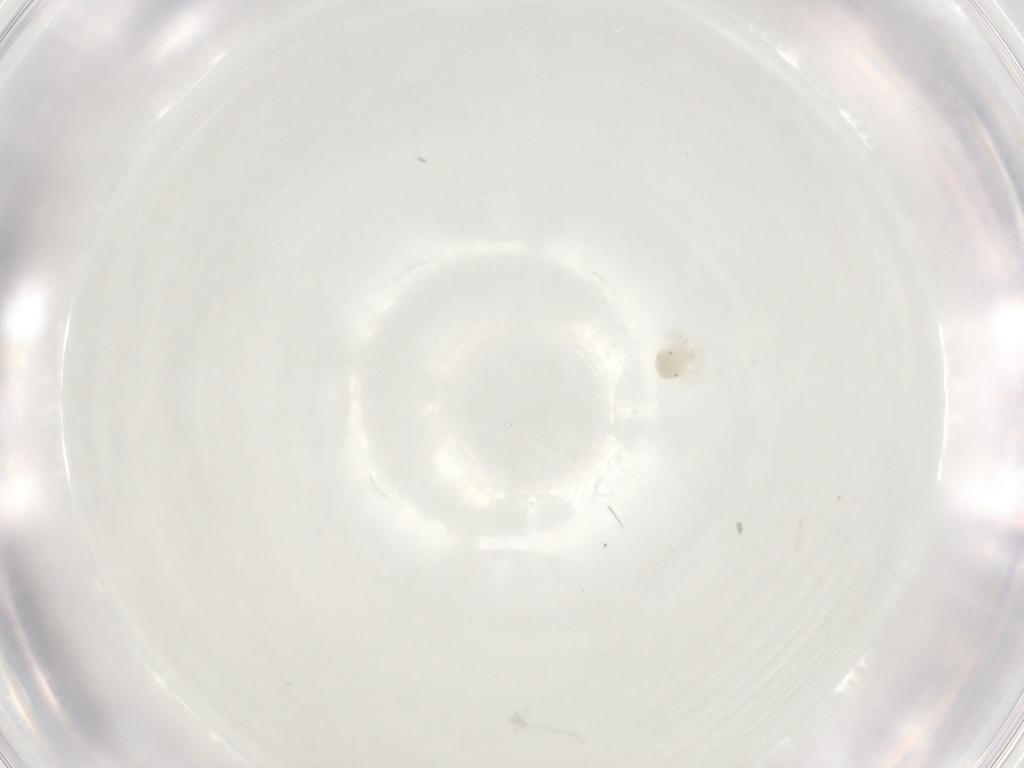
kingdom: Animalia
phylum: Arthropoda
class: Arachnida
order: Trombidiformes
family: Anystidae
